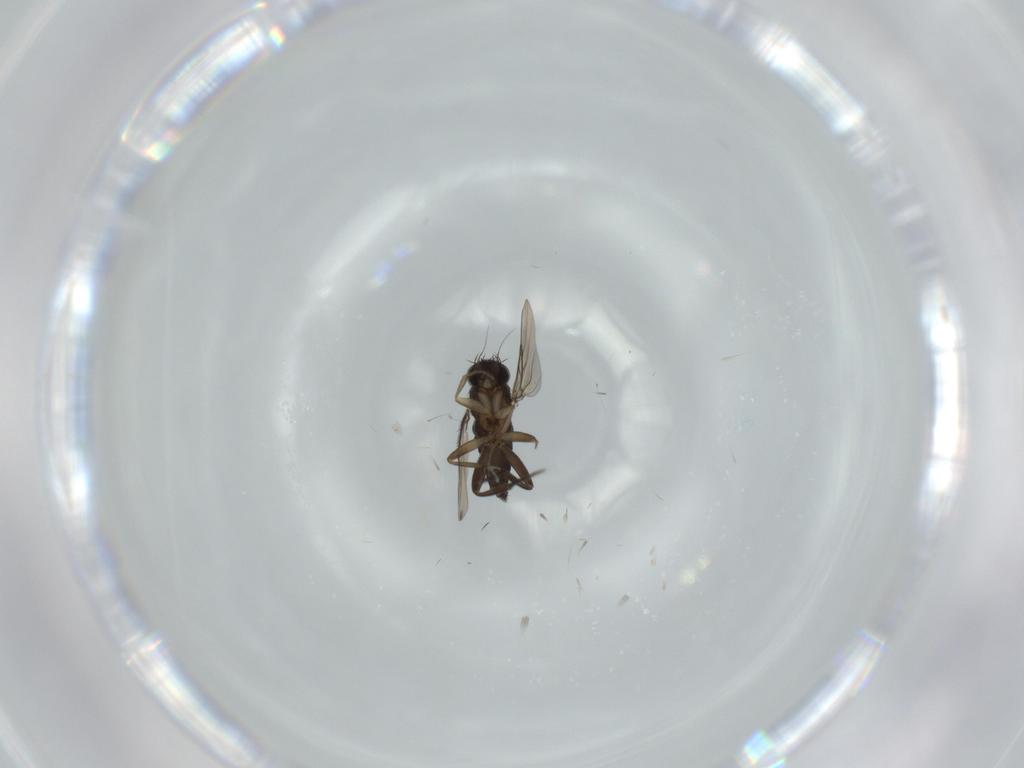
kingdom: Animalia
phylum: Arthropoda
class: Insecta
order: Diptera
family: Phoridae
